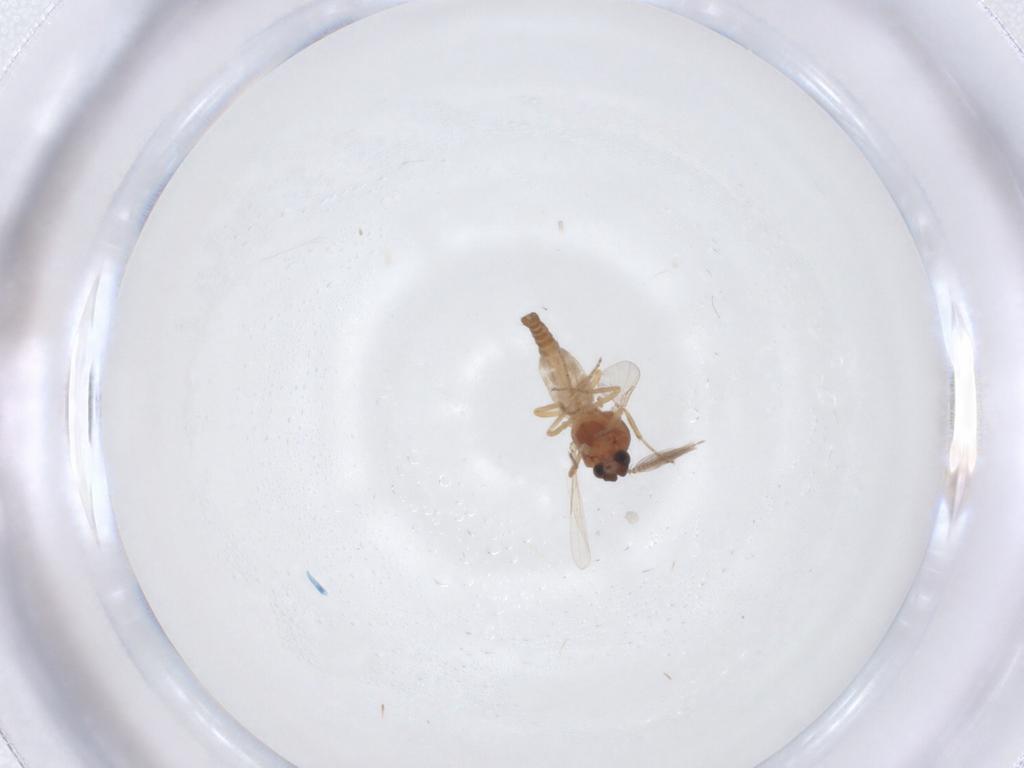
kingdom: Animalia
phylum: Arthropoda
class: Insecta
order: Diptera
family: Ceratopogonidae
